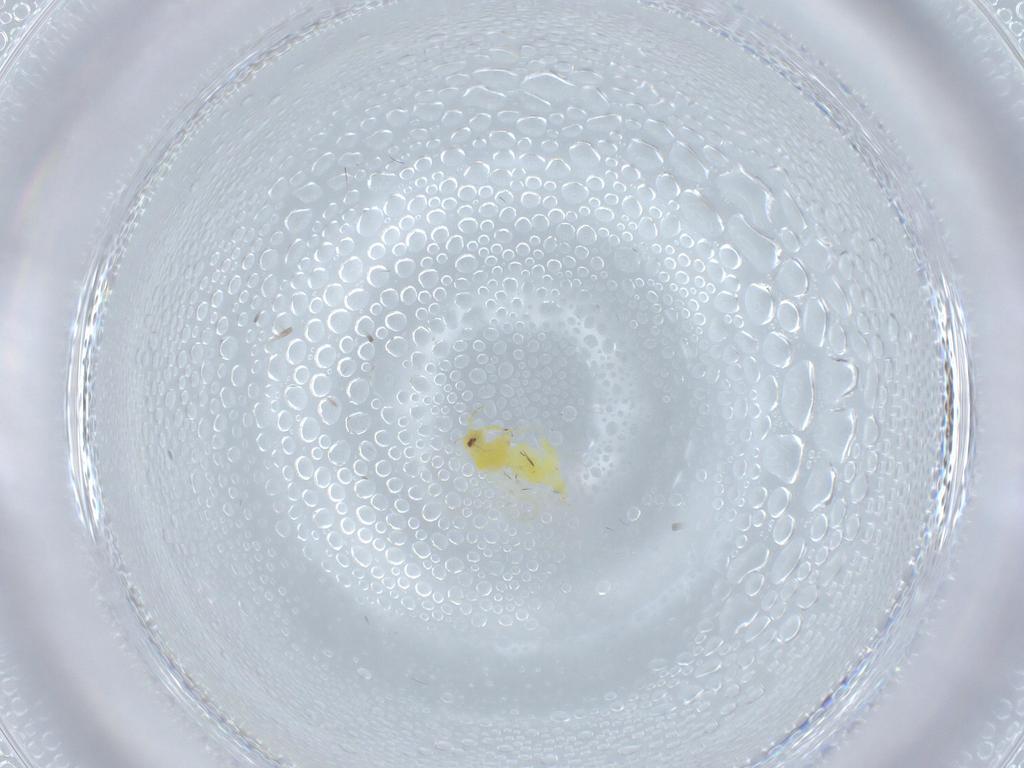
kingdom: Animalia
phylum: Arthropoda
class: Insecta
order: Hemiptera
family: Aleyrodidae
